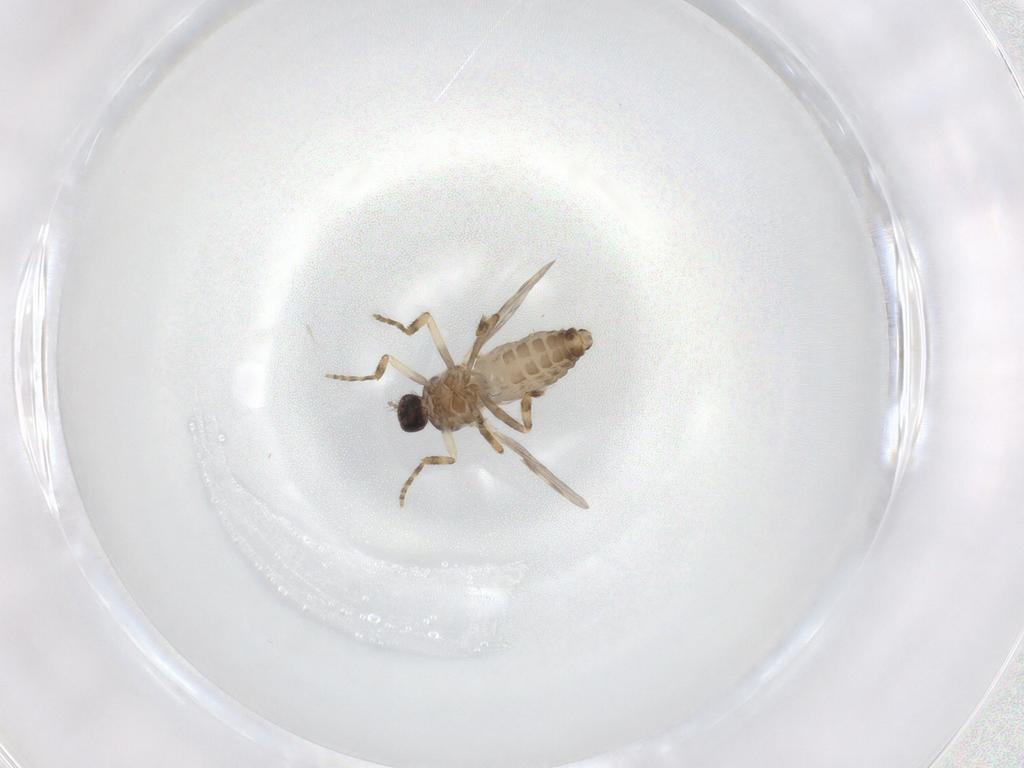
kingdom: Animalia
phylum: Arthropoda
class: Insecta
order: Diptera
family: Ceratopogonidae
